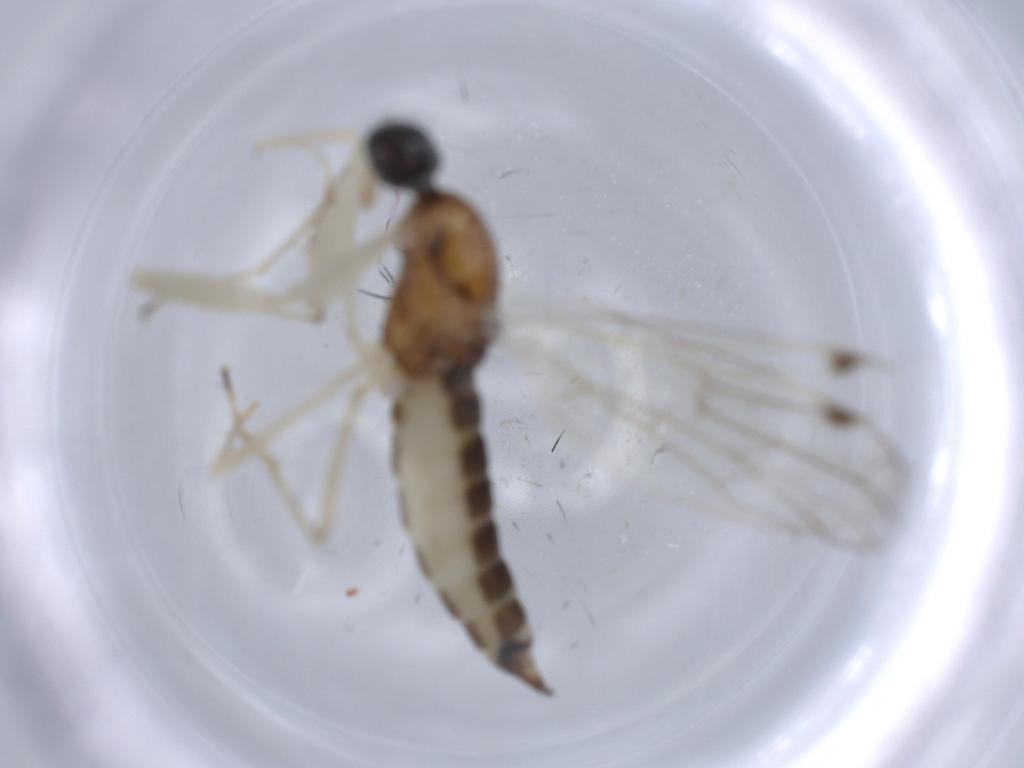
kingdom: Animalia
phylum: Arthropoda
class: Insecta
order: Diptera
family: Empididae
